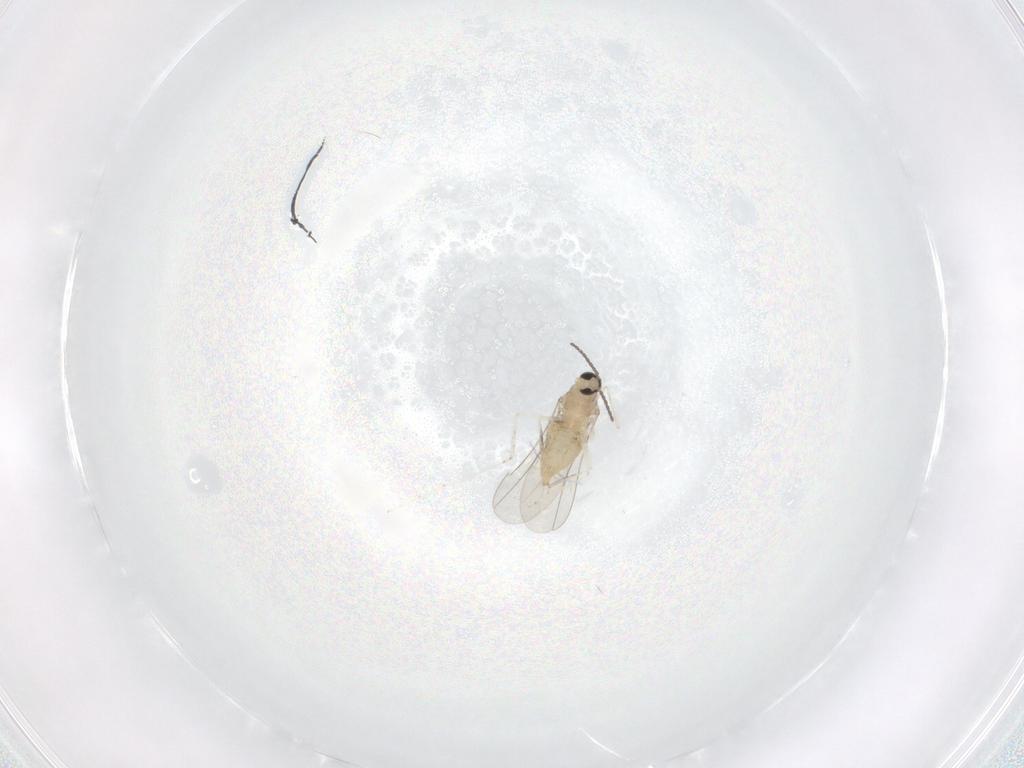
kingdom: Animalia
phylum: Arthropoda
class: Insecta
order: Diptera
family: Cecidomyiidae
